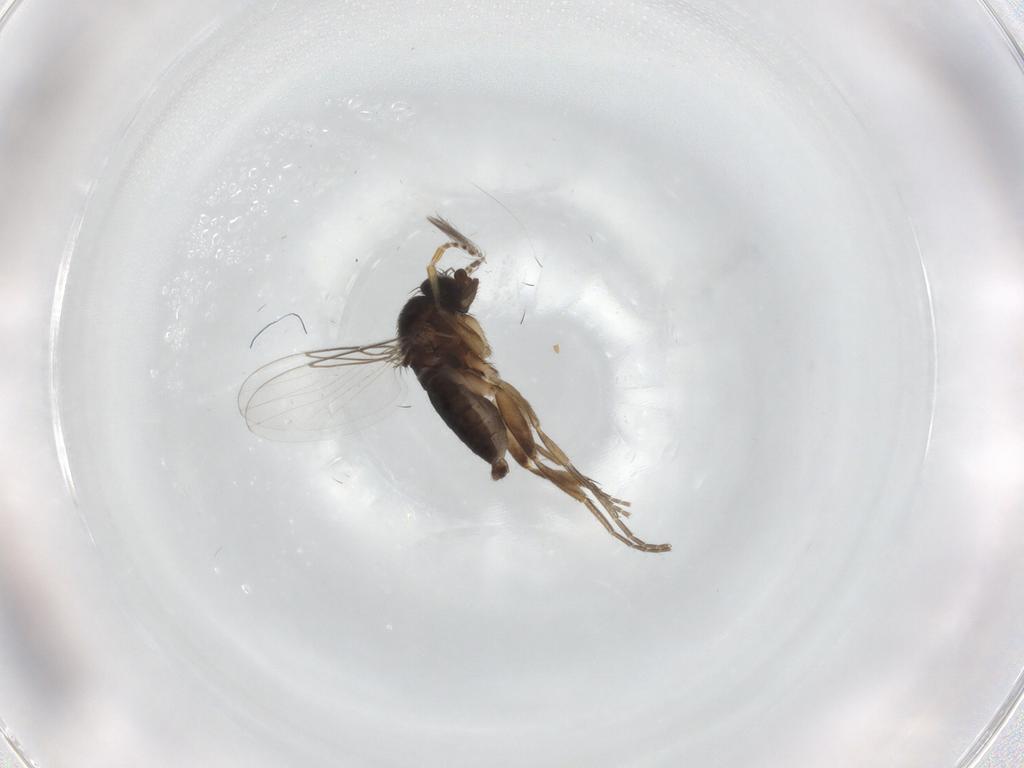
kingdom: Animalia
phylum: Arthropoda
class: Insecta
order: Diptera
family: Phoridae
